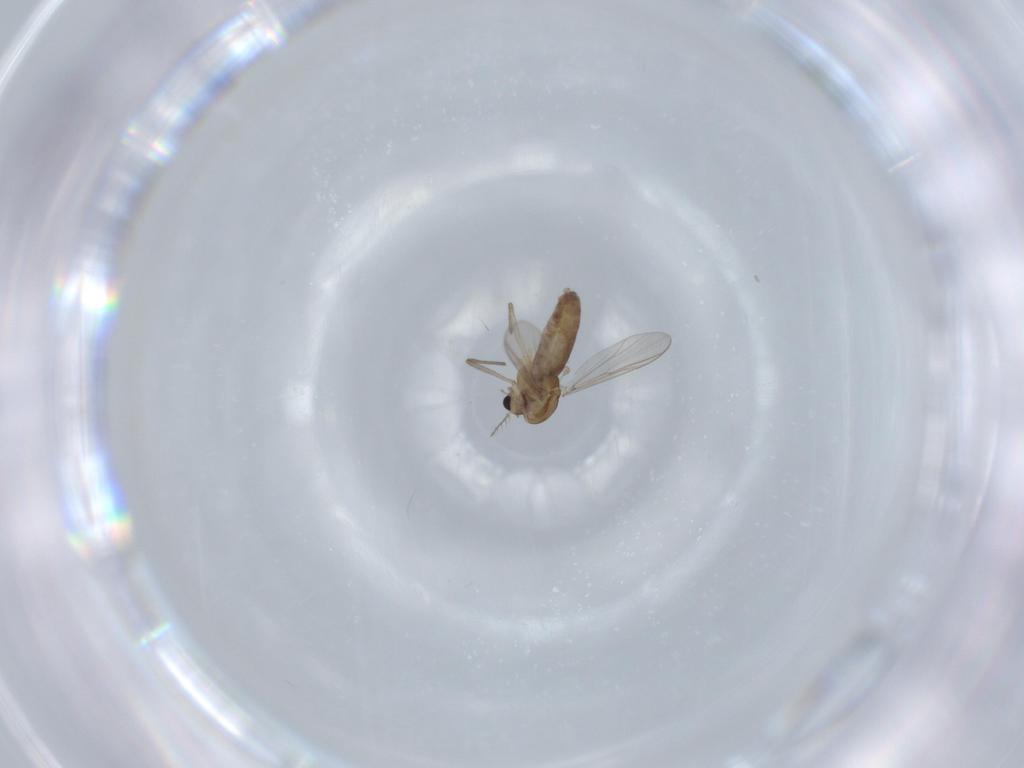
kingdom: Animalia
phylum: Arthropoda
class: Insecta
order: Diptera
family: Chironomidae
